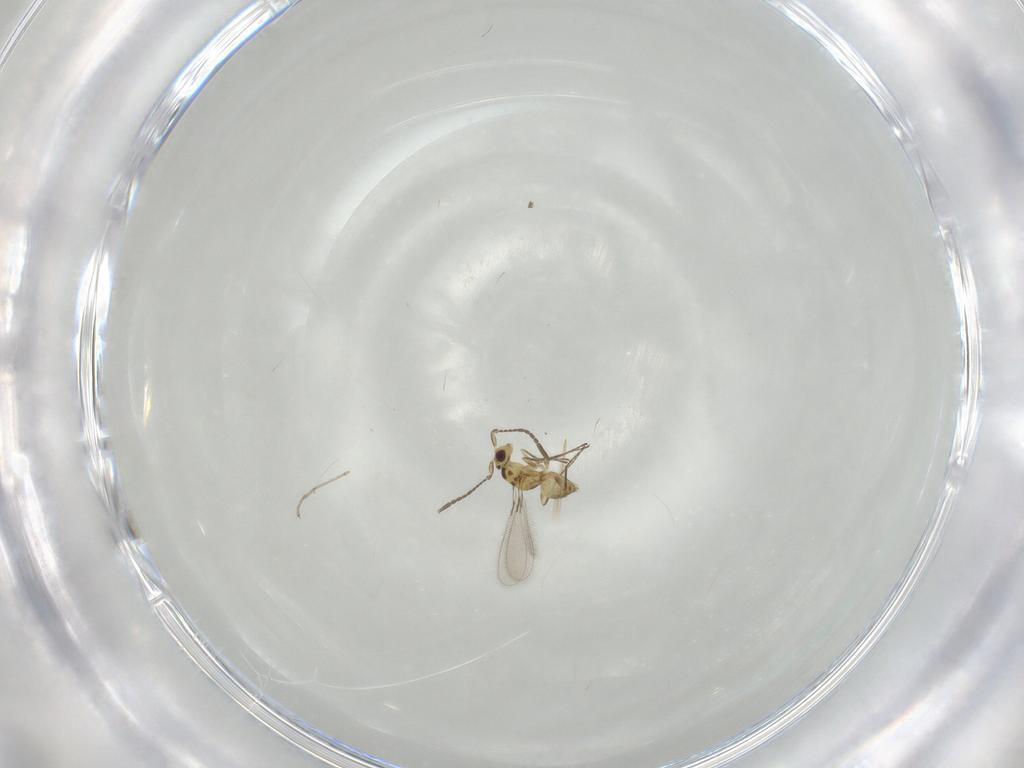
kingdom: Animalia
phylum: Arthropoda
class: Insecta
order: Hymenoptera
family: Mymaridae
